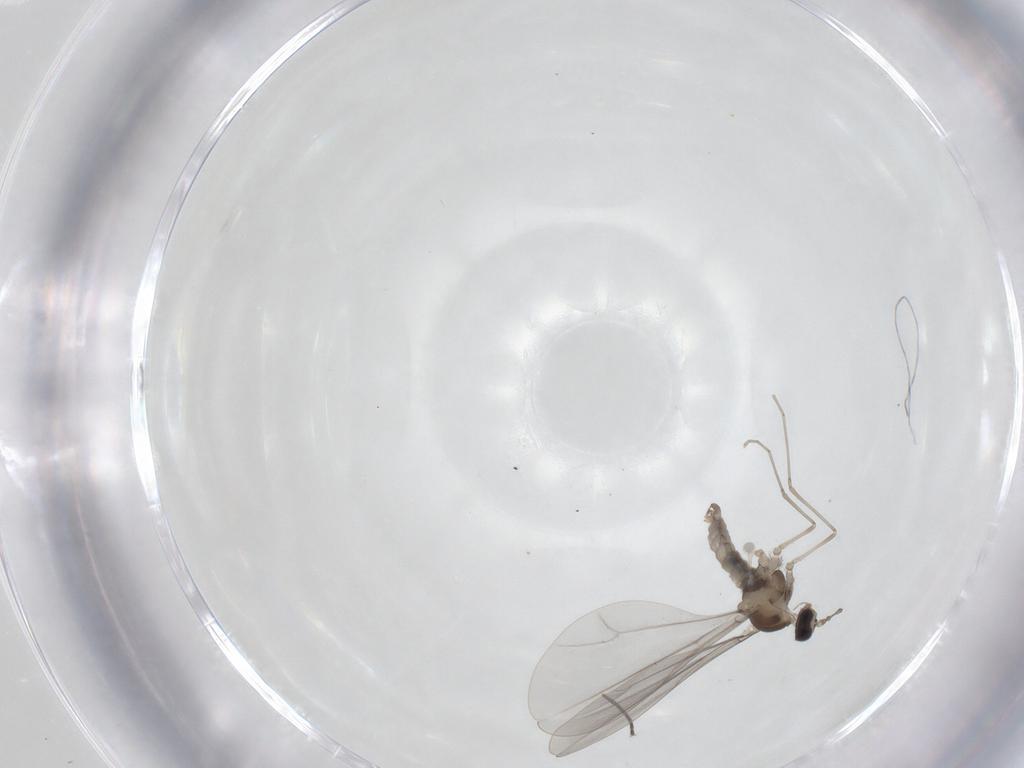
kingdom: Animalia
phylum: Arthropoda
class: Insecta
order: Diptera
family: Cecidomyiidae
